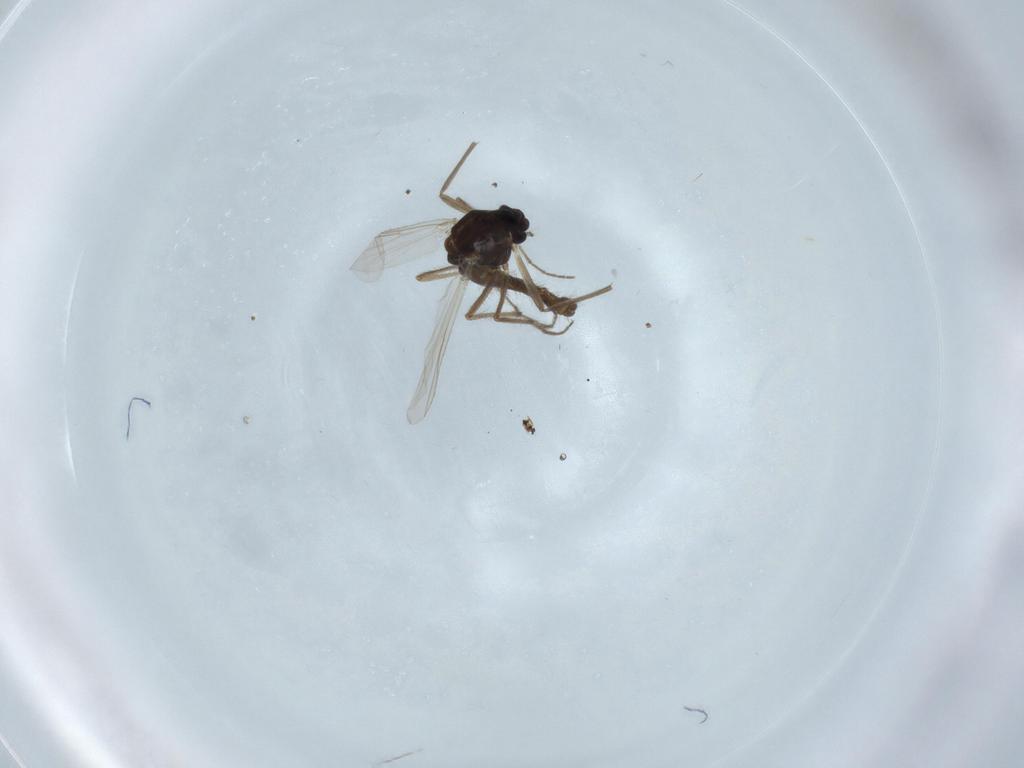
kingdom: Animalia
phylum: Arthropoda
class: Insecta
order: Diptera
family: Chironomidae
